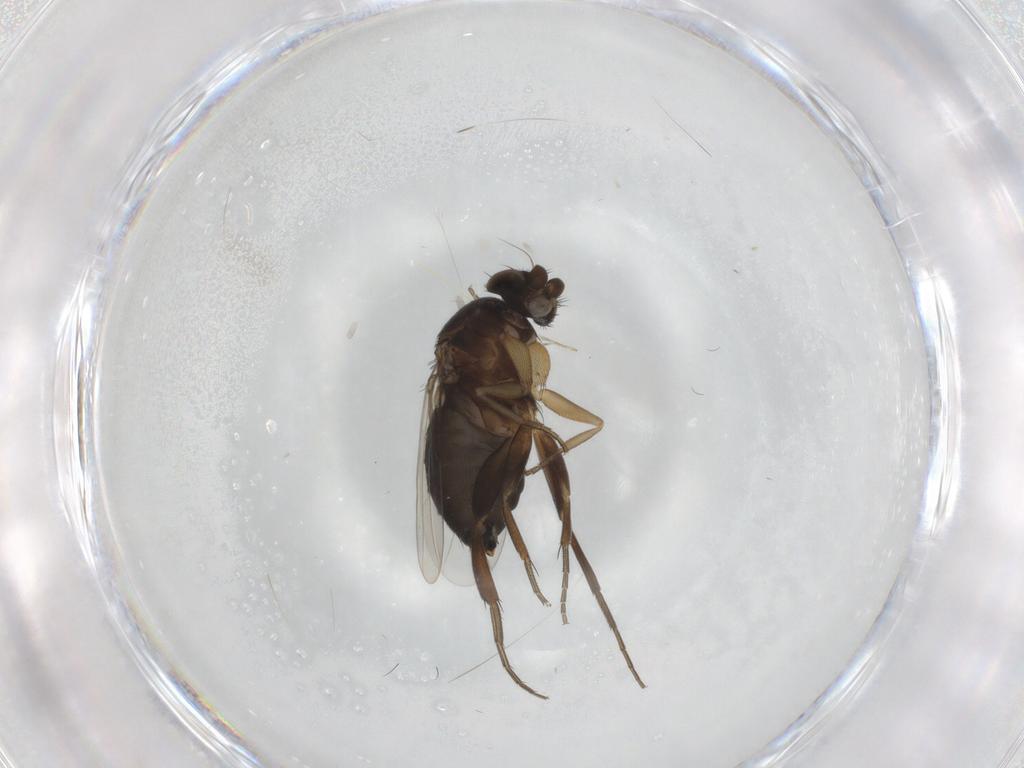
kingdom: Animalia
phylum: Arthropoda
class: Insecta
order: Diptera
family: Phoridae
